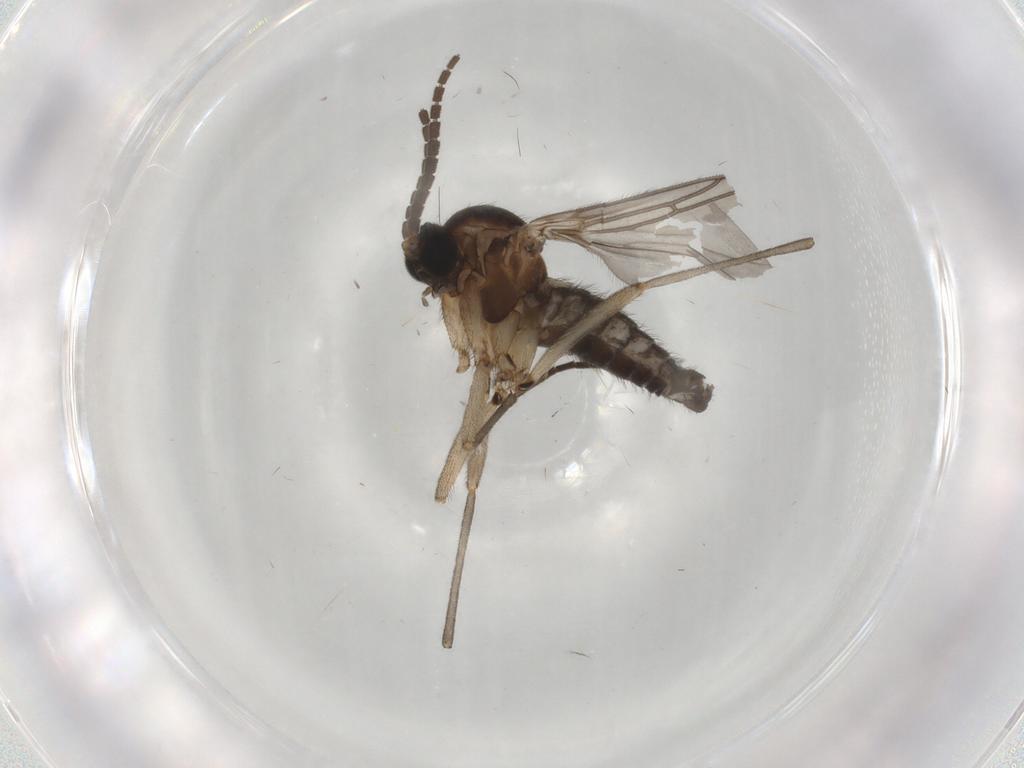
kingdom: Animalia
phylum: Arthropoda
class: Insecta
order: Diptera
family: Sciaridae
